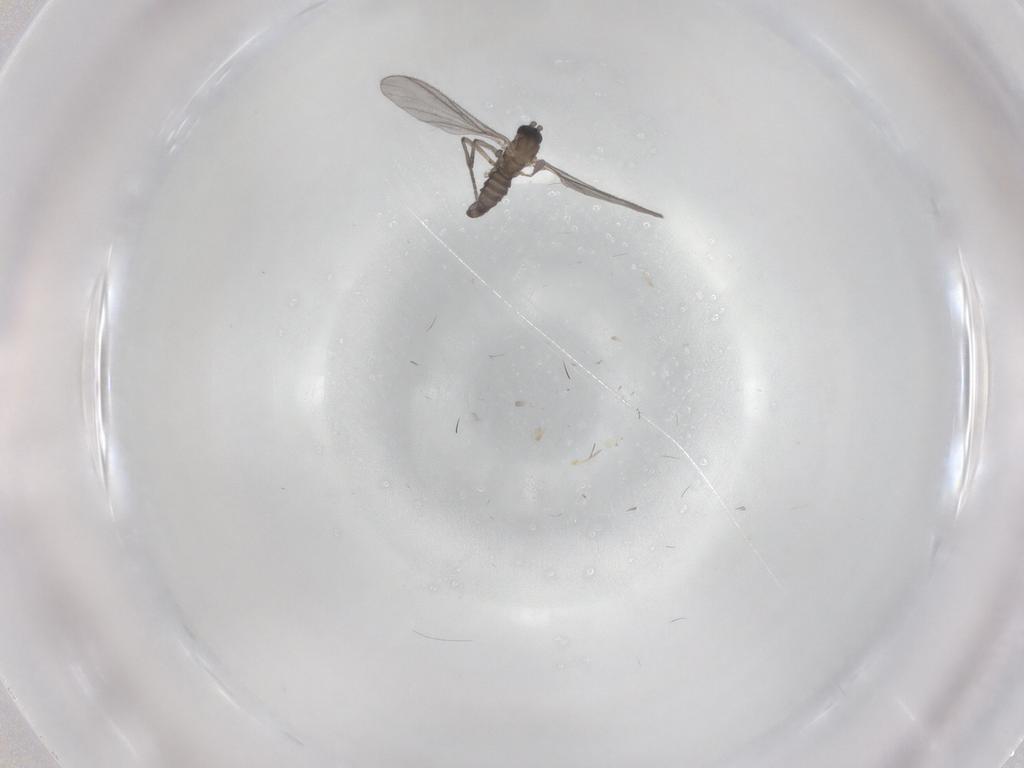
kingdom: Animalia
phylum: Arthropoda
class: Insecta
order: Diptera
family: Sciaridae
